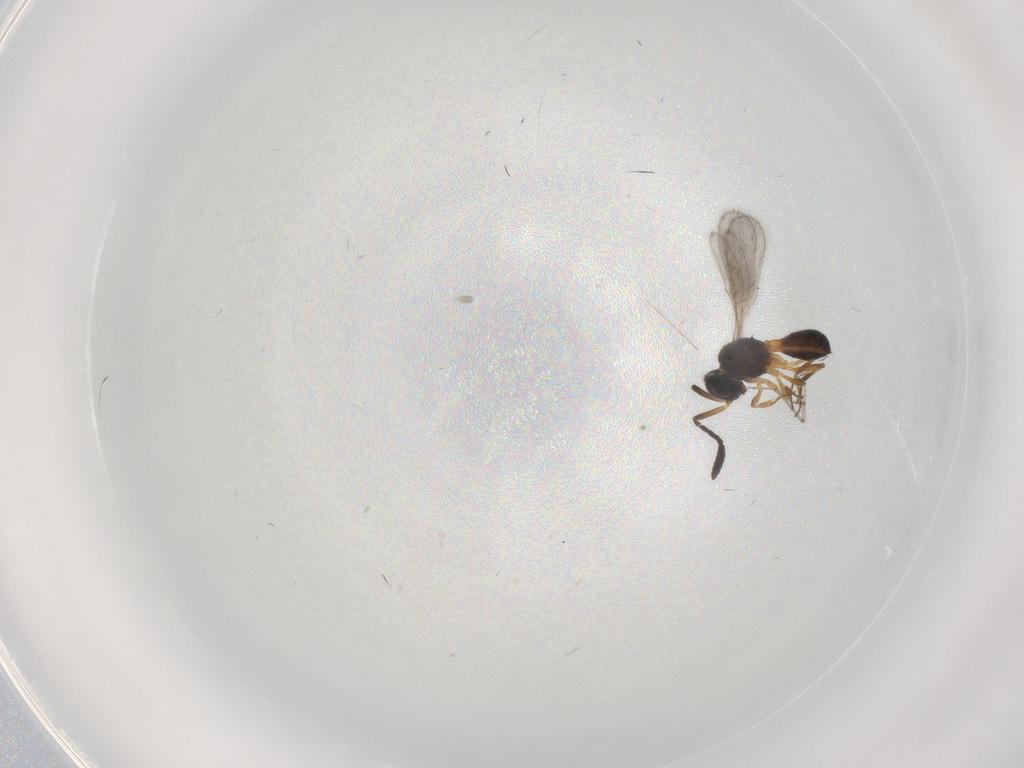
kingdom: Animalia
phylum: Arthropoda
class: Insecta
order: Hymenoptera
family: Scelionidae
